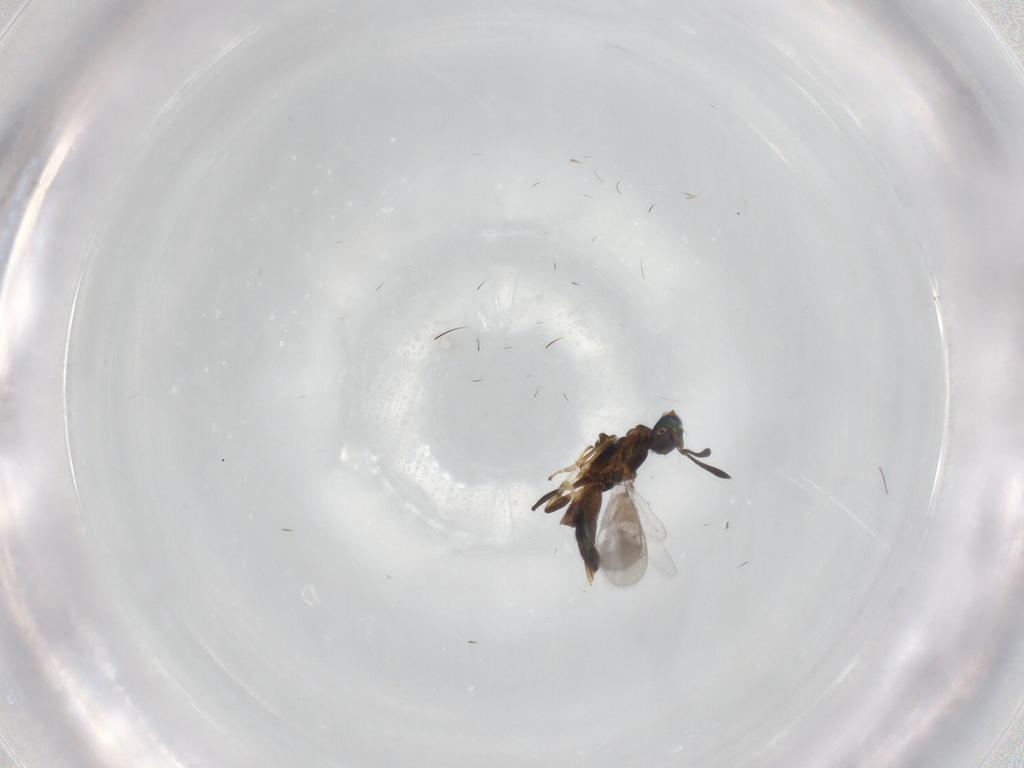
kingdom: Animalia
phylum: Arthropoda
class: Insecta
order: Hymenoptera
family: Eupelmidae
